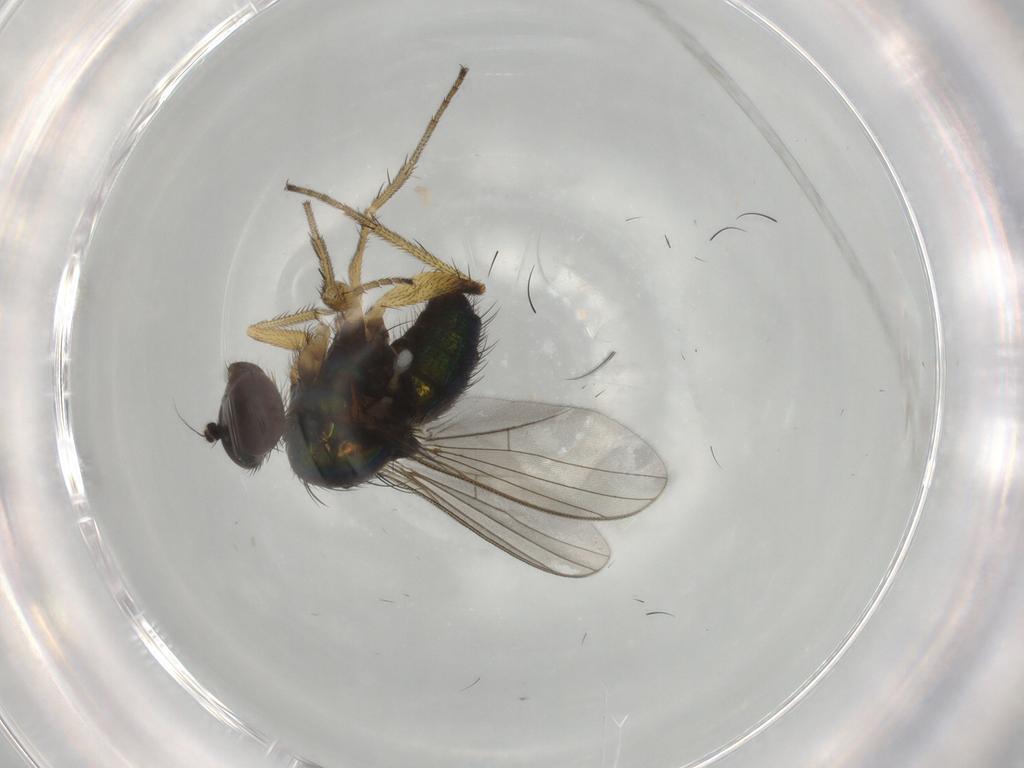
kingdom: Animalia
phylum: Arthropoda
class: Insecta
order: Diptera
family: Dolichopodidae
